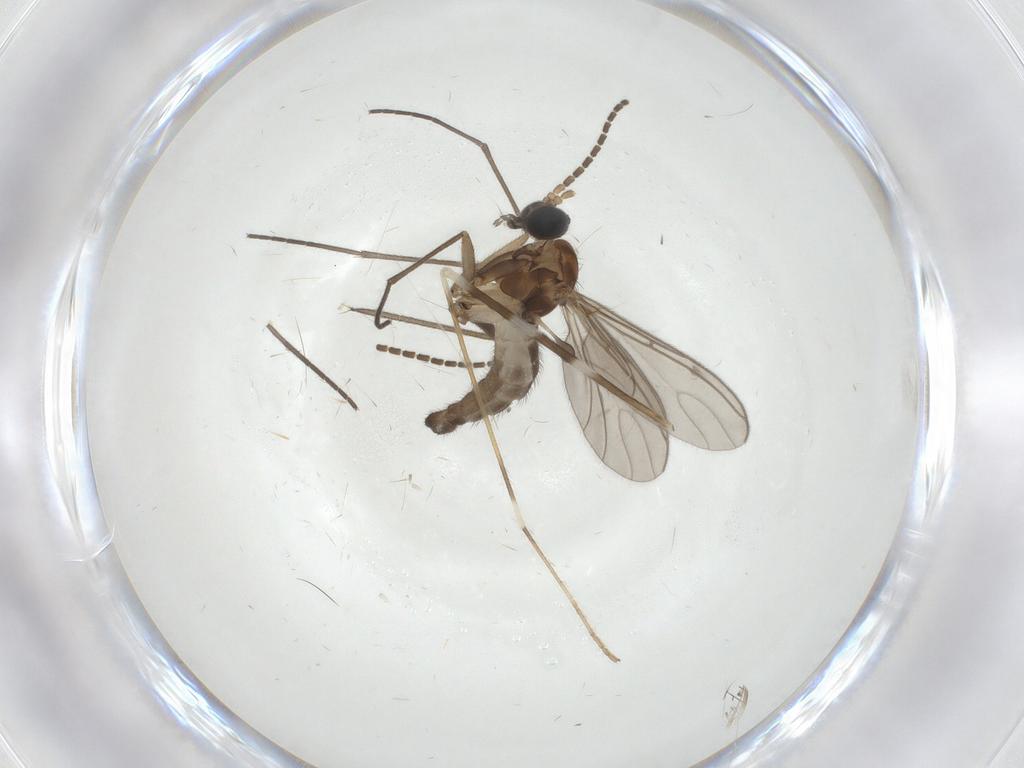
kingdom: Animalia
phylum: Arthropoda
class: Insecta
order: Diptera
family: Sciaridae
